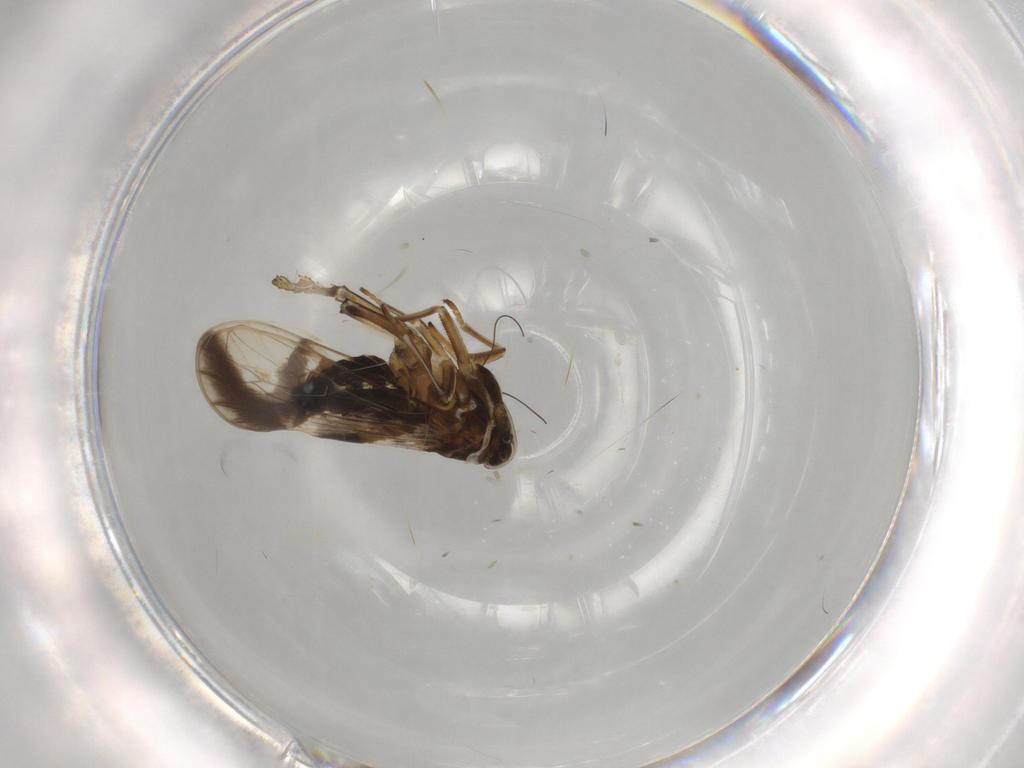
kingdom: Animalia
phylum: Arthropoda
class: Insecta
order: Hemiptera
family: Delphacidae
